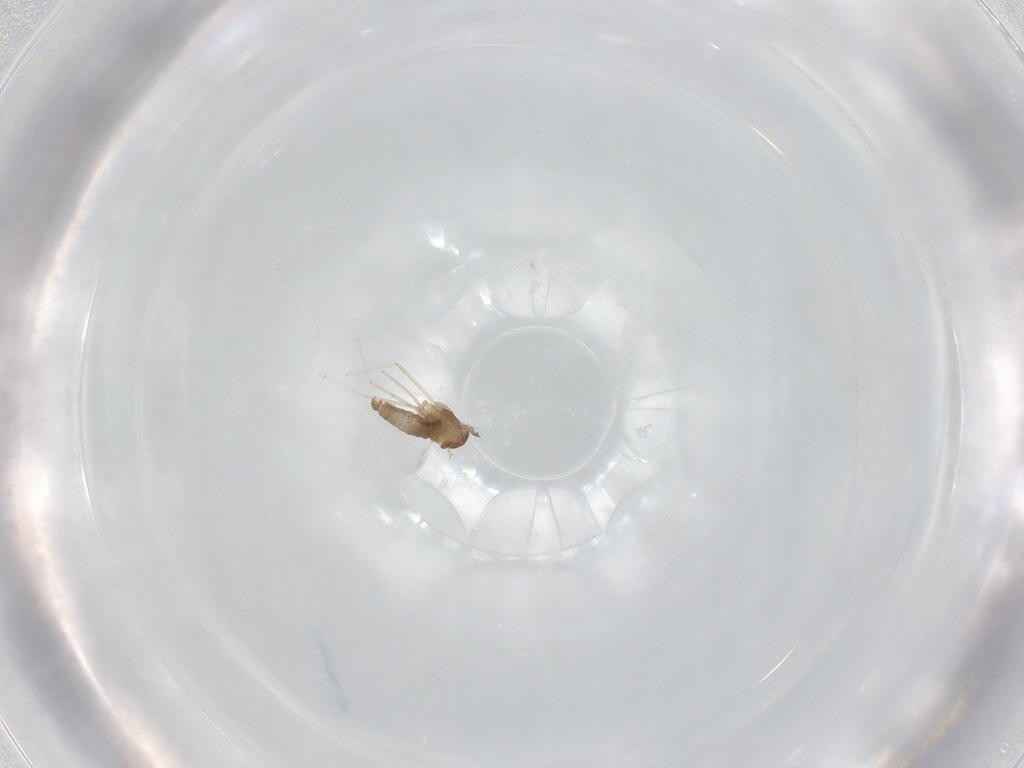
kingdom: Animalia
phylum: Arthropoda
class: Insecta
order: Diptera
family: Cecidomyiidae
